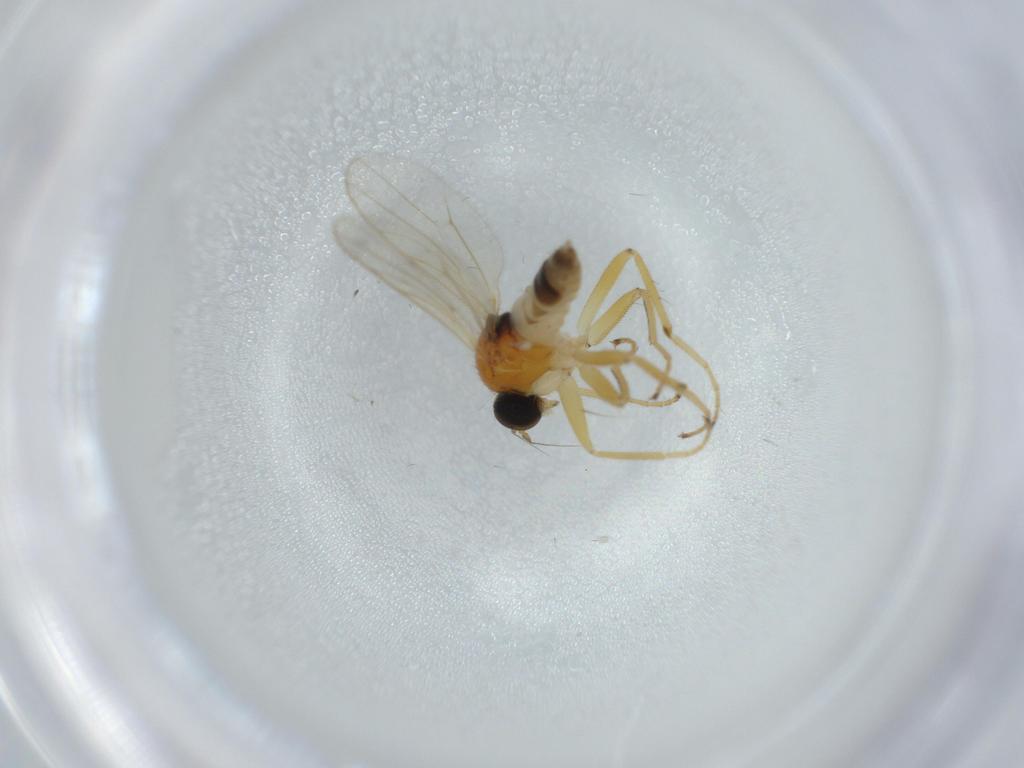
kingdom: Animalia
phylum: Arthropoda
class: Insecta
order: Diptera
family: Hybotidae
